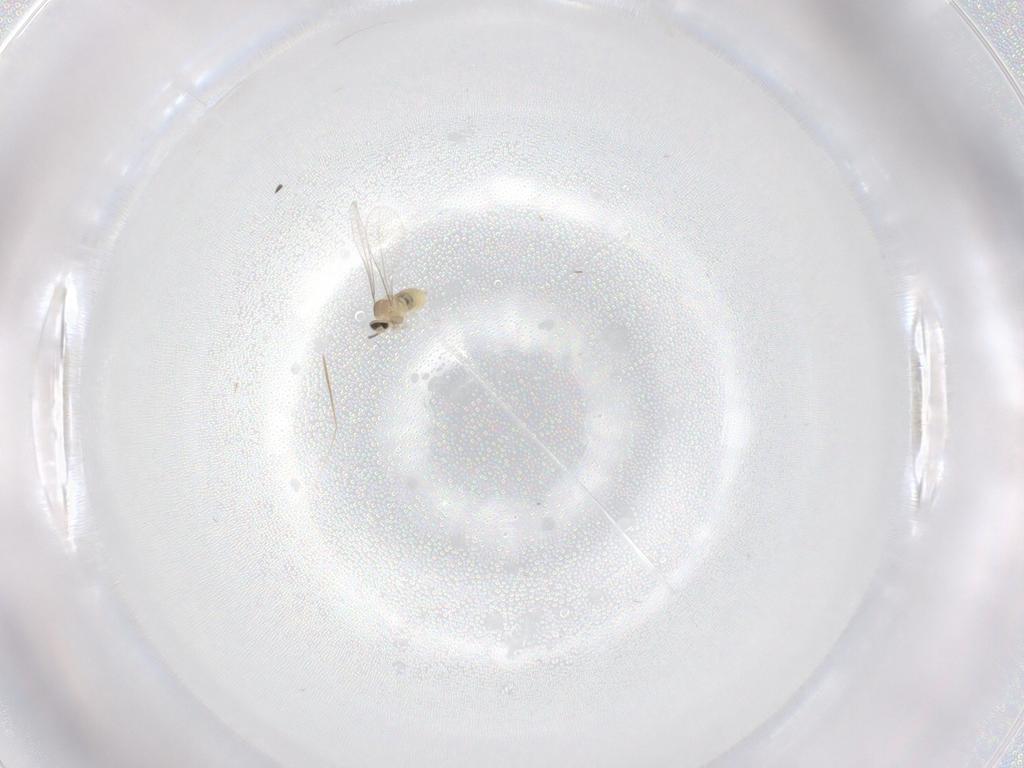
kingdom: Animalia
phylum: Arthropoda
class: Insecta
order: Diptera
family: Cecidomyiidae
